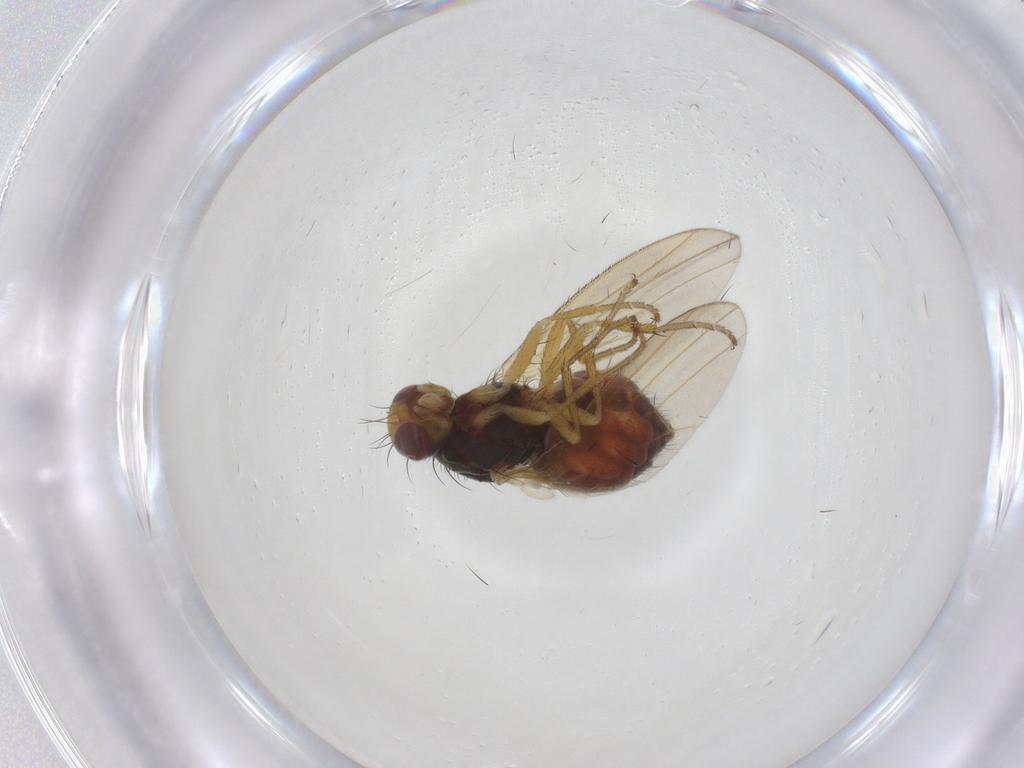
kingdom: Animalia
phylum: Arthropoda
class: Insecta
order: Diptera
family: Heleomyzidae
